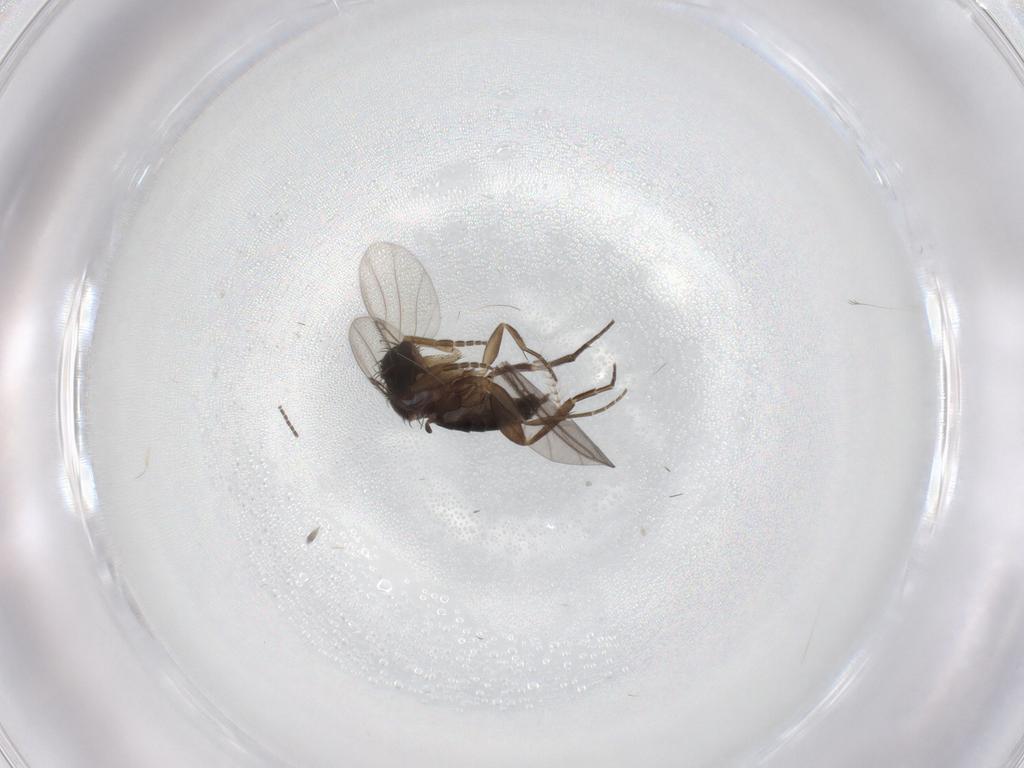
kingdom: Animalia
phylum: Arthropoda
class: Insecta
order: Diptera
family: Phoridae
